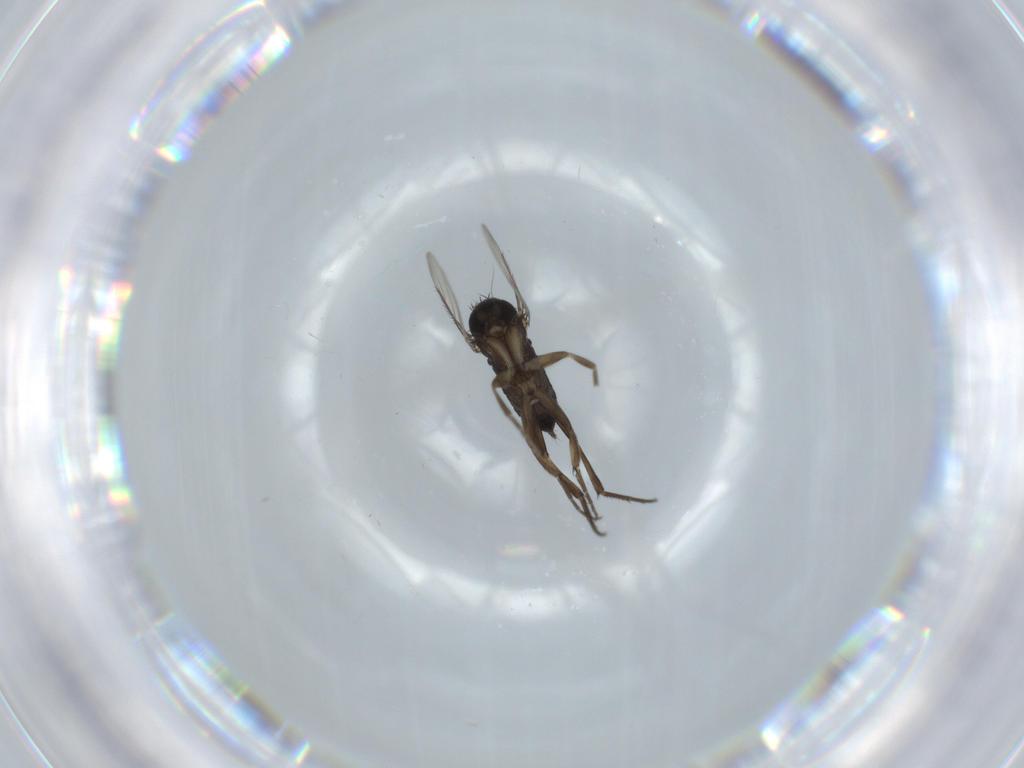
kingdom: Animalia
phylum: Arthropoda
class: Insecta
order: Diptera
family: Phoridae
